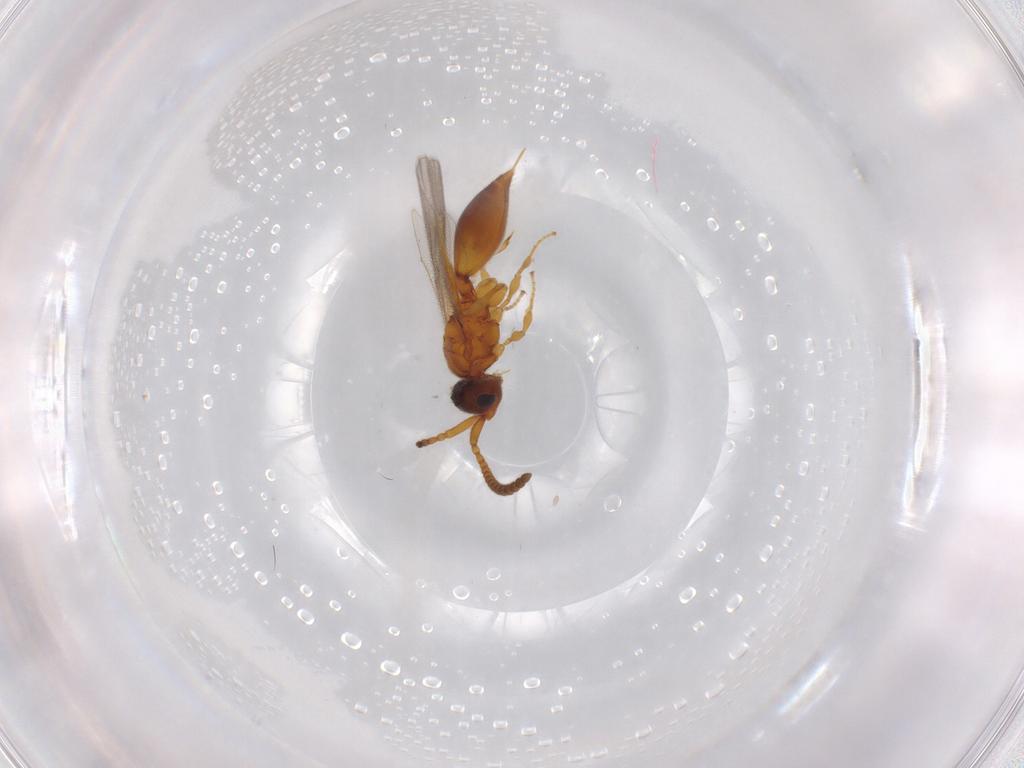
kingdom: Animalia
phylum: Arthropoda
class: Insecta
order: Hymenoptera
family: Diapriidae
